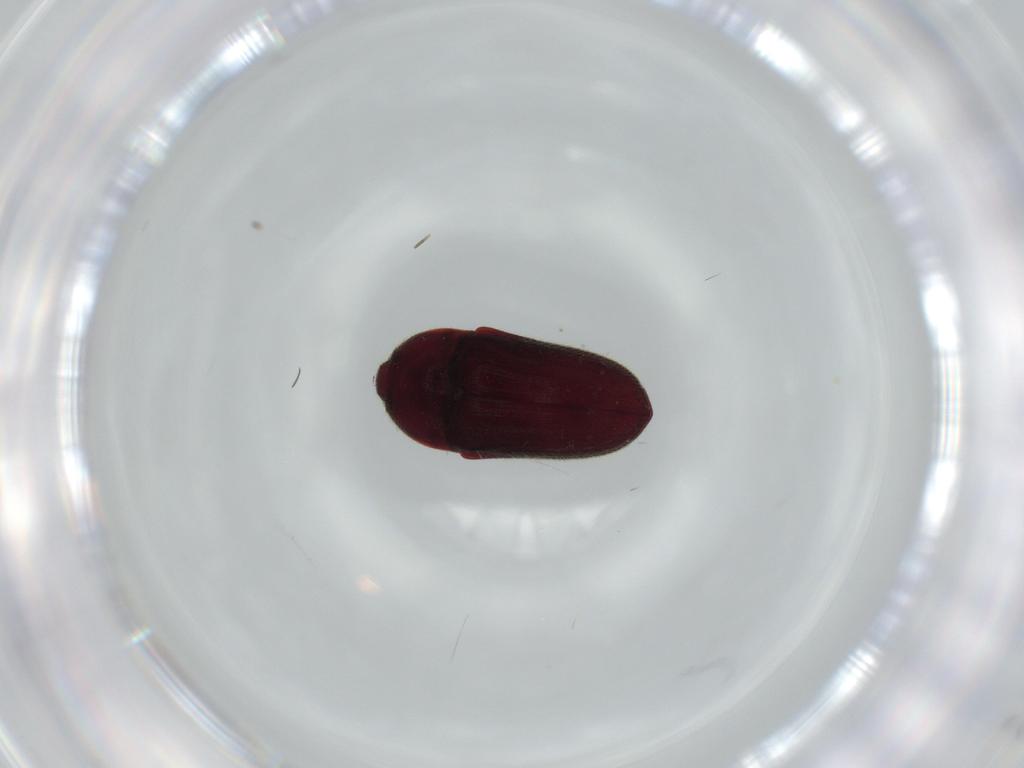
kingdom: Animalia
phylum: Arthropoda
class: Insecta
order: Coleoptera
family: Throscidae
